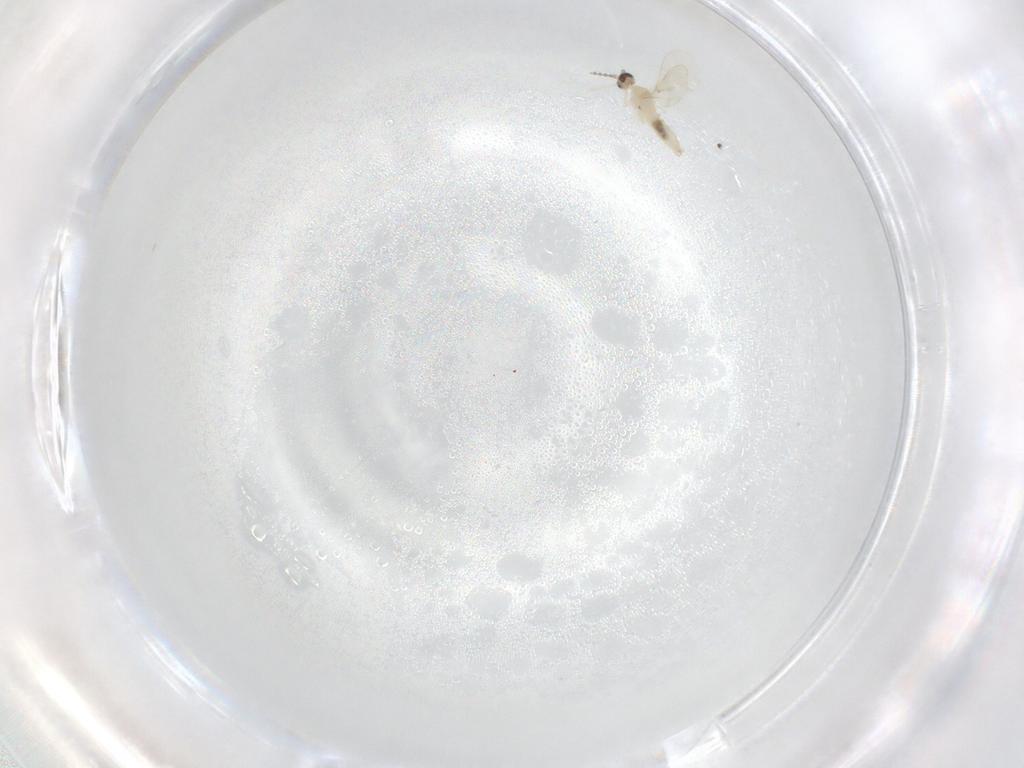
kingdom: Animalia
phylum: Arthropoda
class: Insecta
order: Diptera
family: Cecidomyiidae
